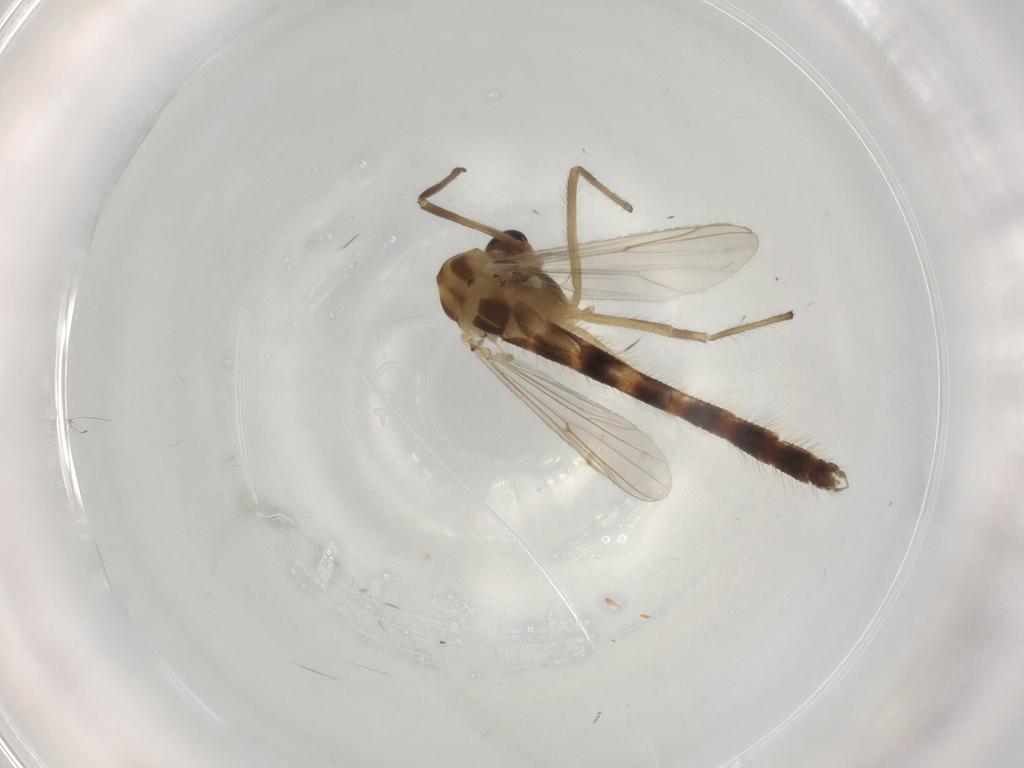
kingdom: Animalia
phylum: Arthropoda
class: Insecta
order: Diptera
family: Chironomidae
